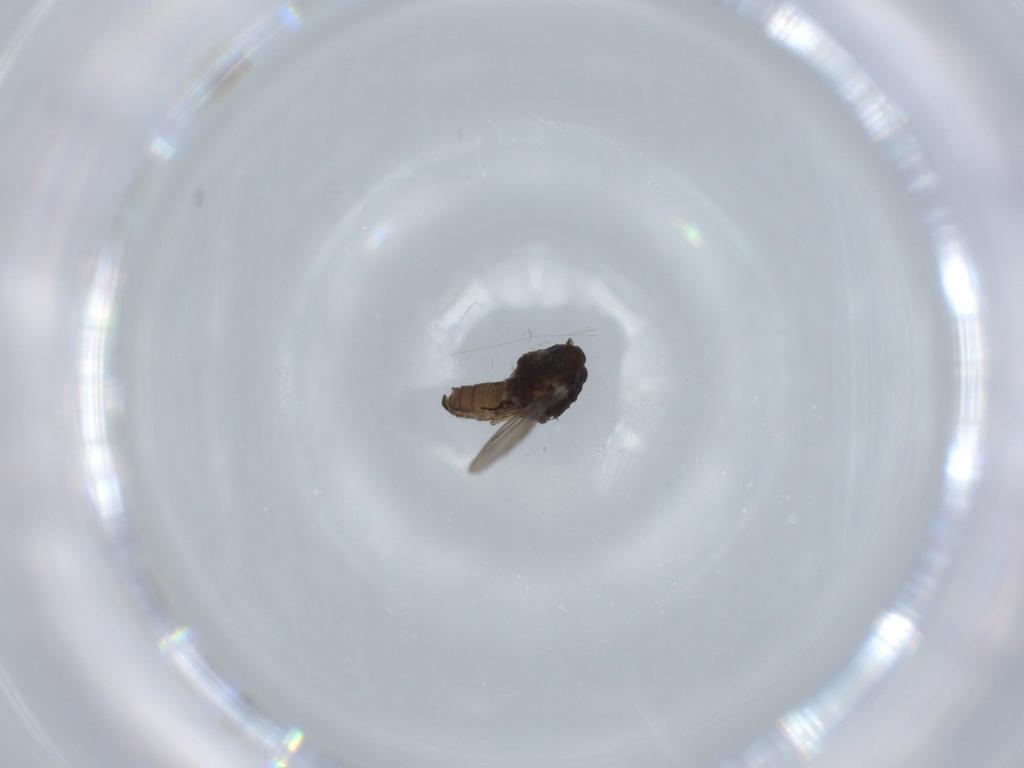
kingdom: Animalia
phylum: Arthropoda
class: Insecta
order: Diptera
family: Psychodidae
